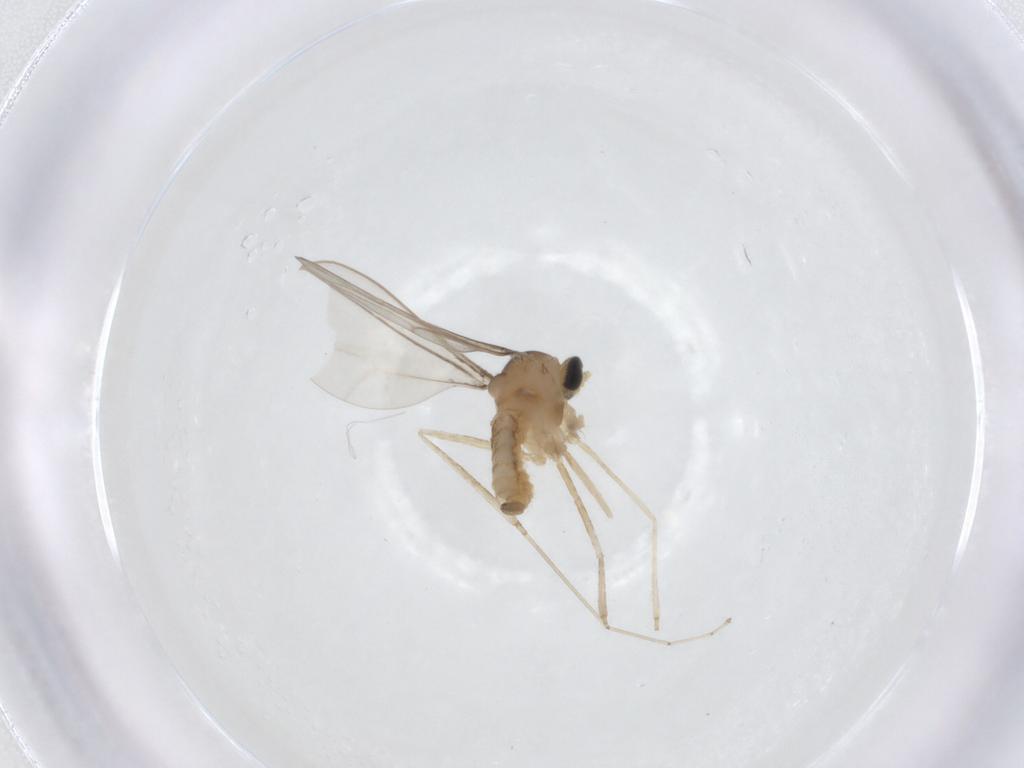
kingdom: Animalia
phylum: Arthropoda
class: Insecta
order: Diptera
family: Cecidomyiidae
